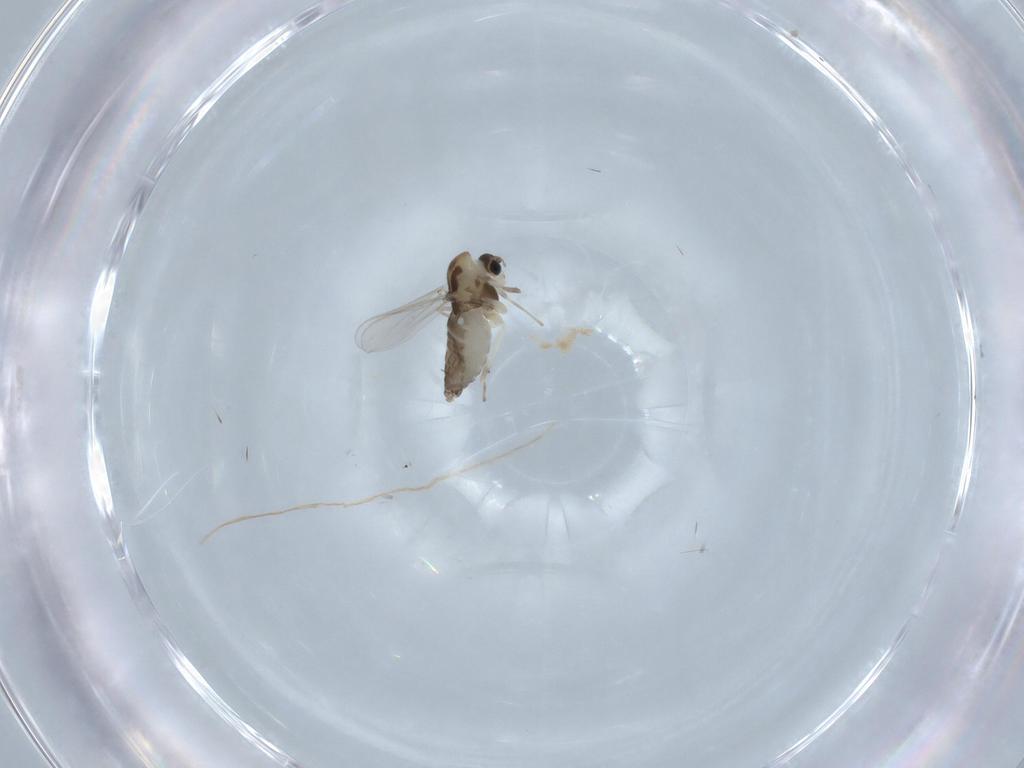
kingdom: Animalia
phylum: Arthropoda
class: Insecta
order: Diptera
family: Chironomidae
